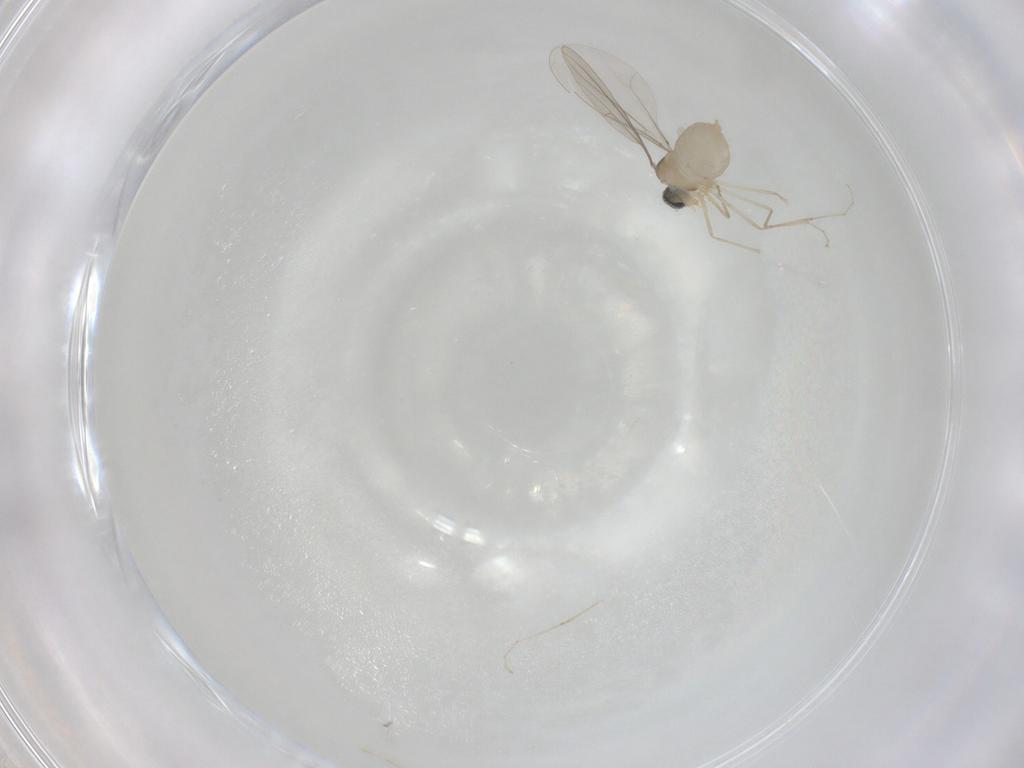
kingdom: Animalia
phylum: Arthropoda
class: Insecta
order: Diptera
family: Cecidomyiidae
